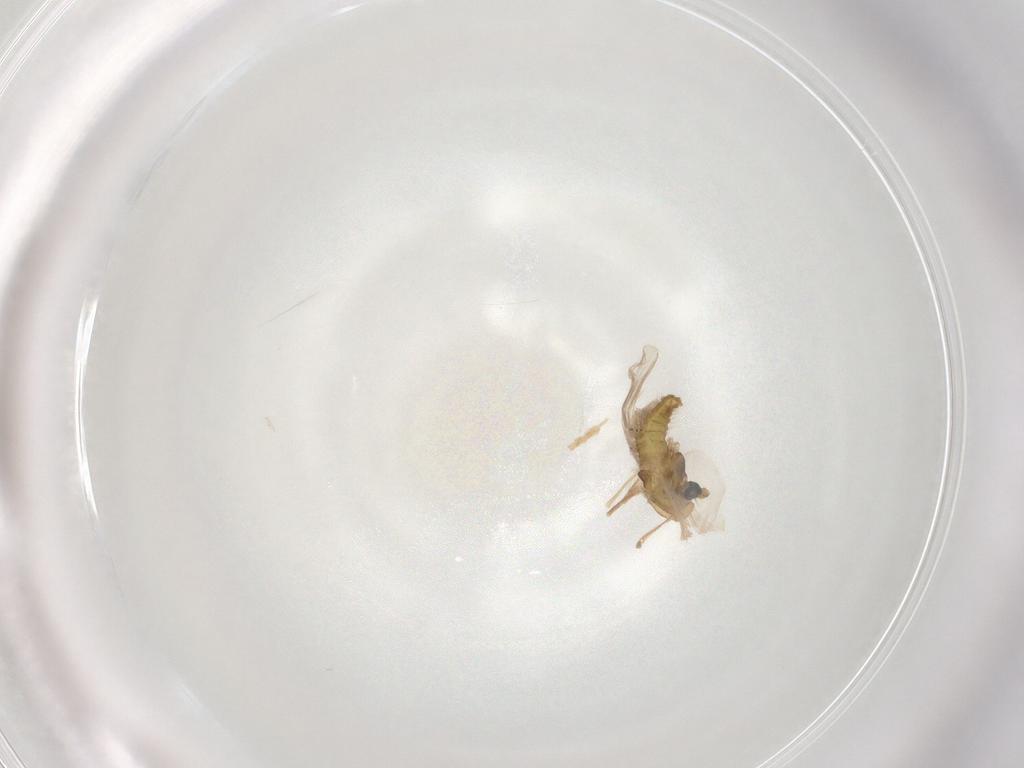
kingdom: Animalia
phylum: Arthropoda
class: Insecta
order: Diptera
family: Chironomidae
